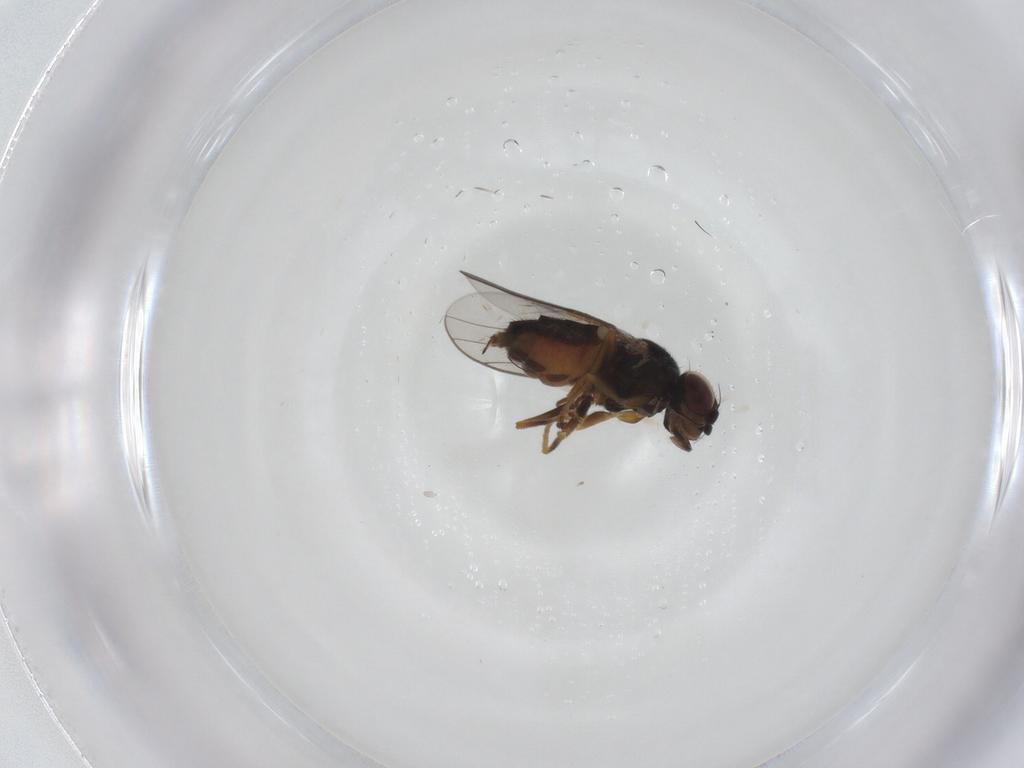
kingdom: Animalia
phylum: Arthropoda
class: Insecta
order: Diptera
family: Chloropidae
